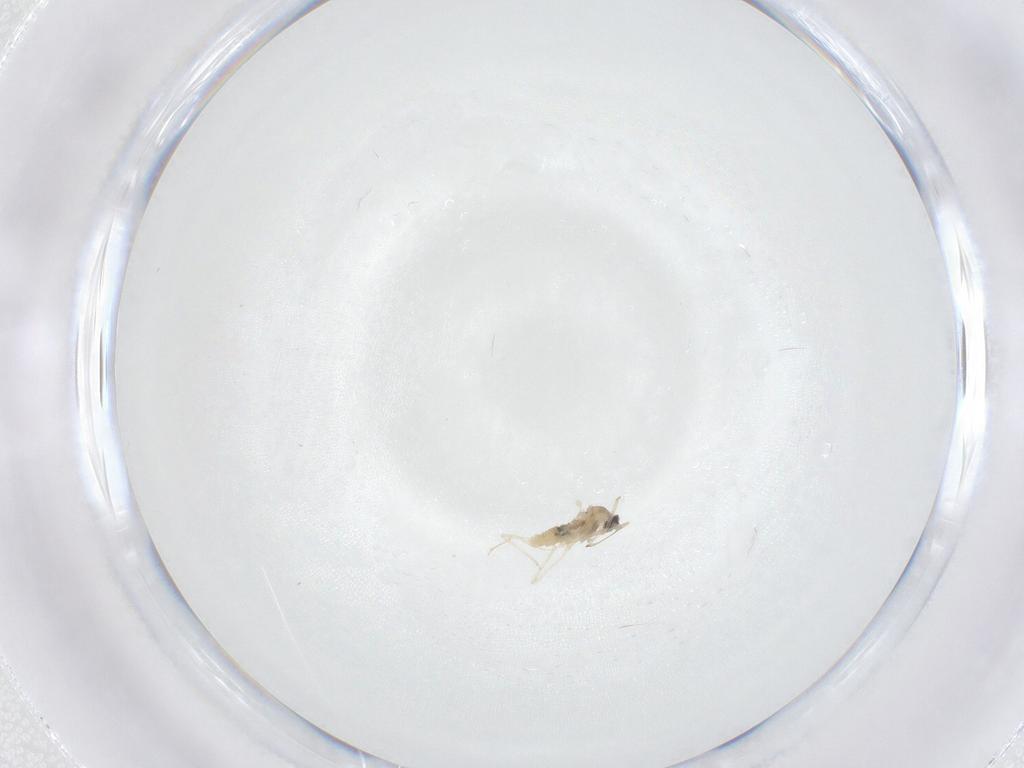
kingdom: Animalia
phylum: Arthropoda
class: Insecta
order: Diptera
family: Cecidomyiidae
